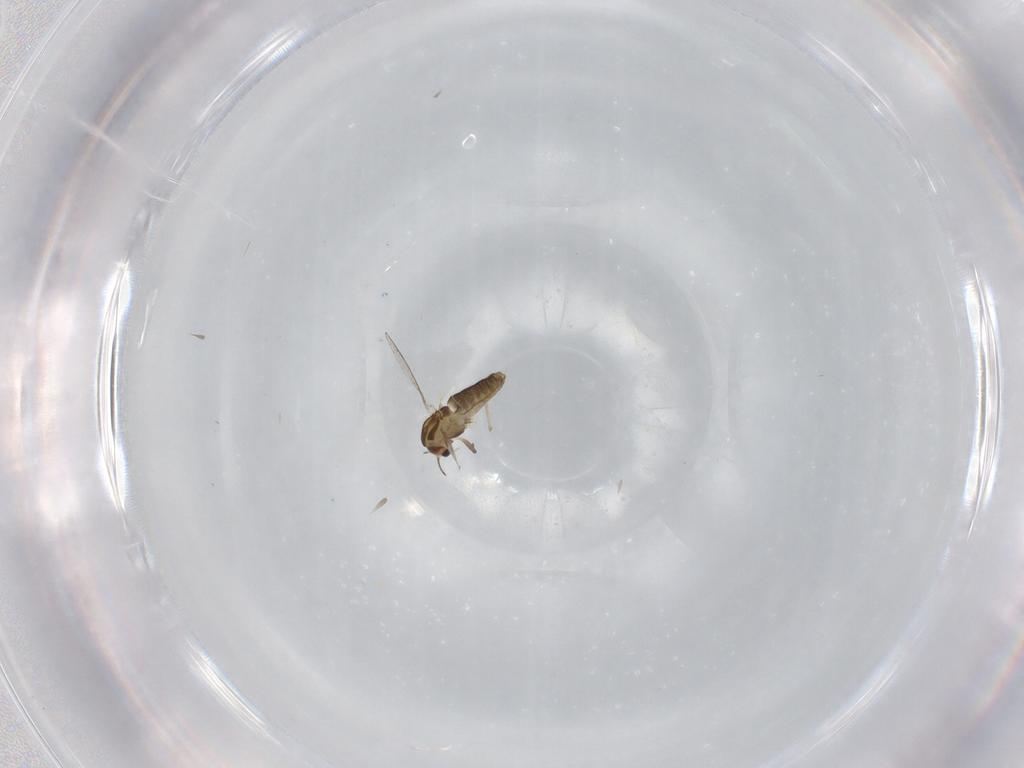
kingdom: Animalia
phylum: Arthropoda
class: Insecta
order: Diptera
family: Chironomidae
